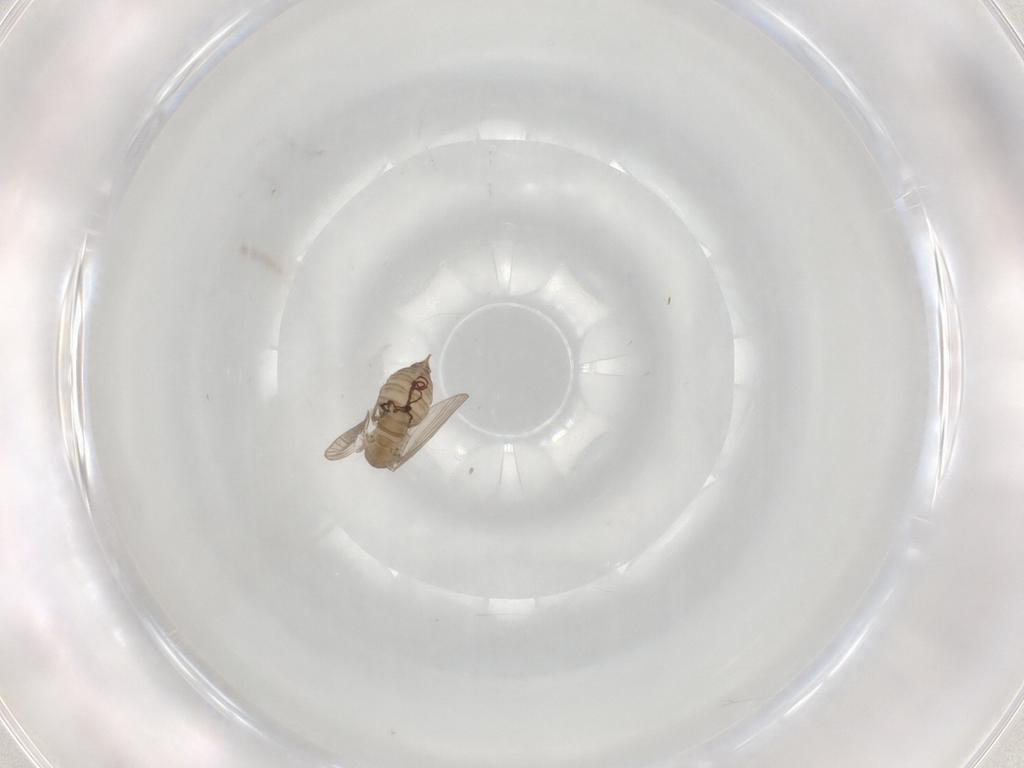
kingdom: Animalia
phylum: Arthropoda
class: Insecta
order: Diptera
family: Psychodidae
